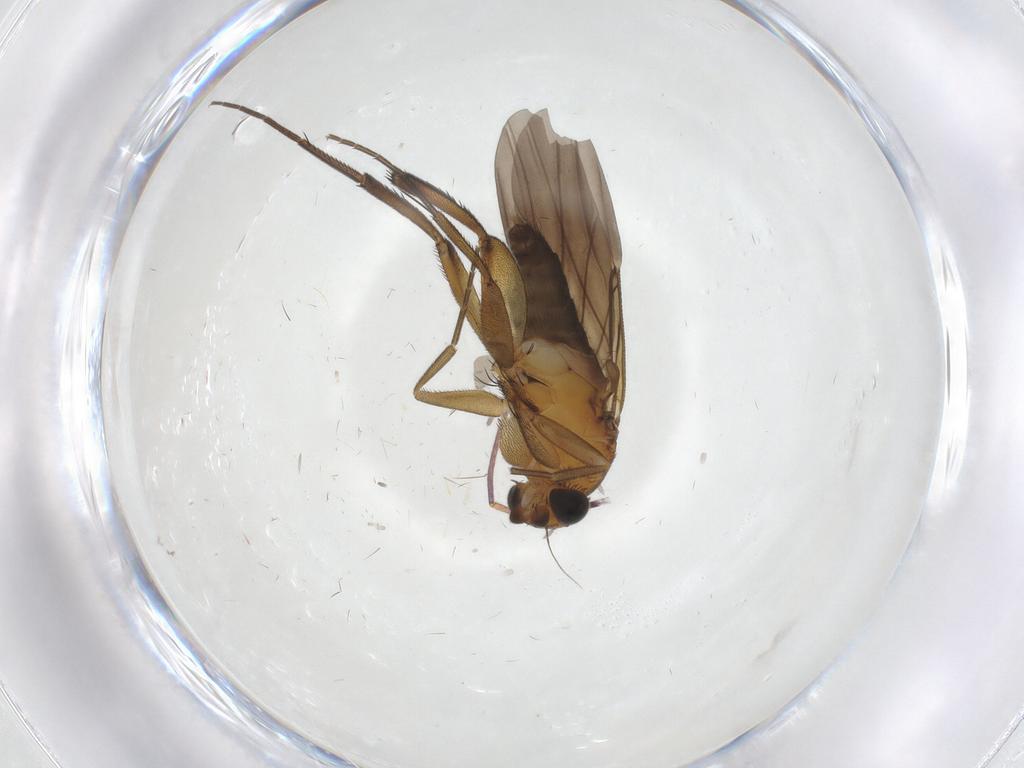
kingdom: Animalia
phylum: Arthropoda
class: Insecta
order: Diptera
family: Phoridae
